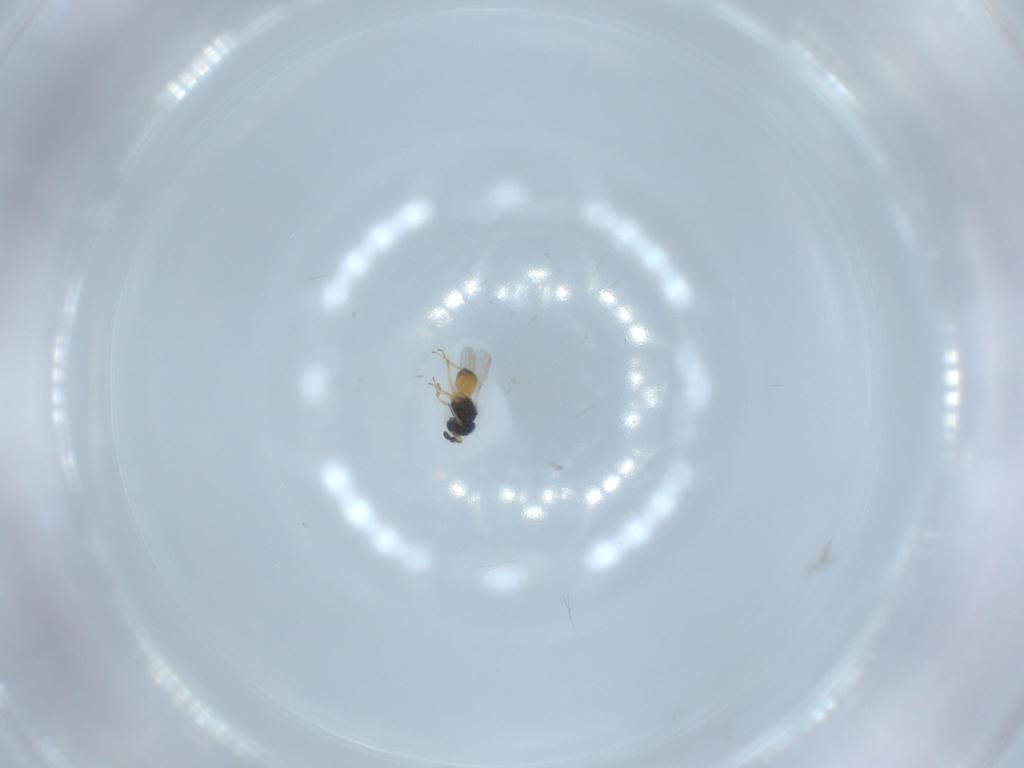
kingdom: Animalia
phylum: Arthropoda
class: Insecta
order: Hymenoptera
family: Scelionidae
